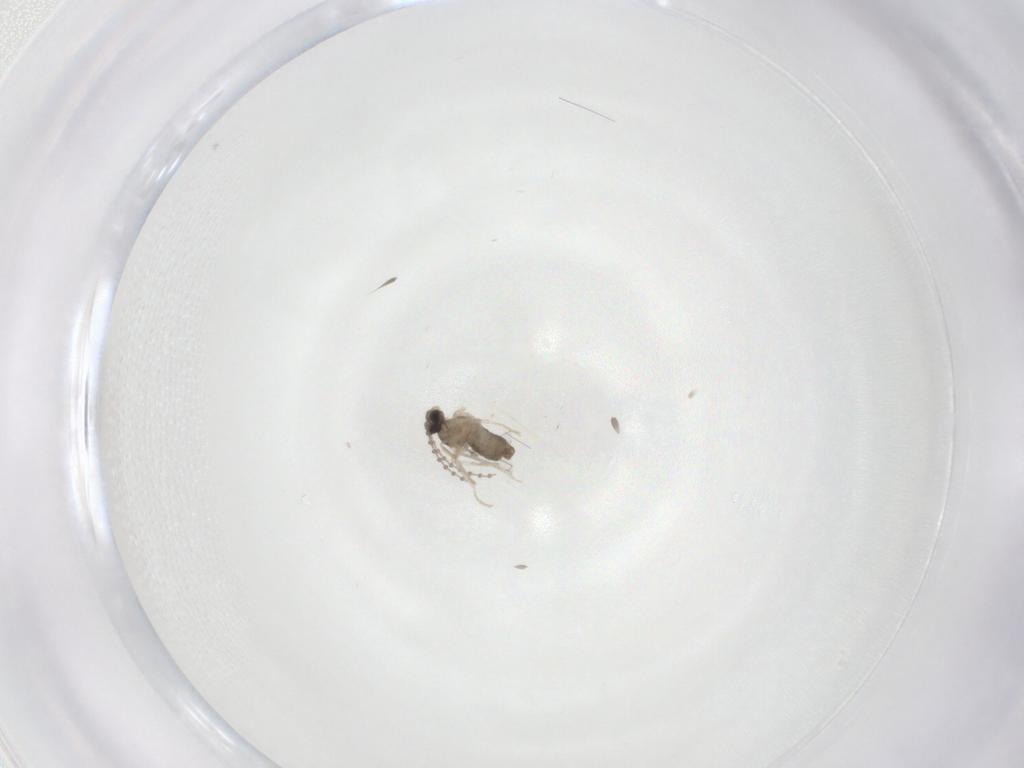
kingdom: Animalia
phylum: Arthropoda
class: Insecta
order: Diptera
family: Cecidomyiidae
